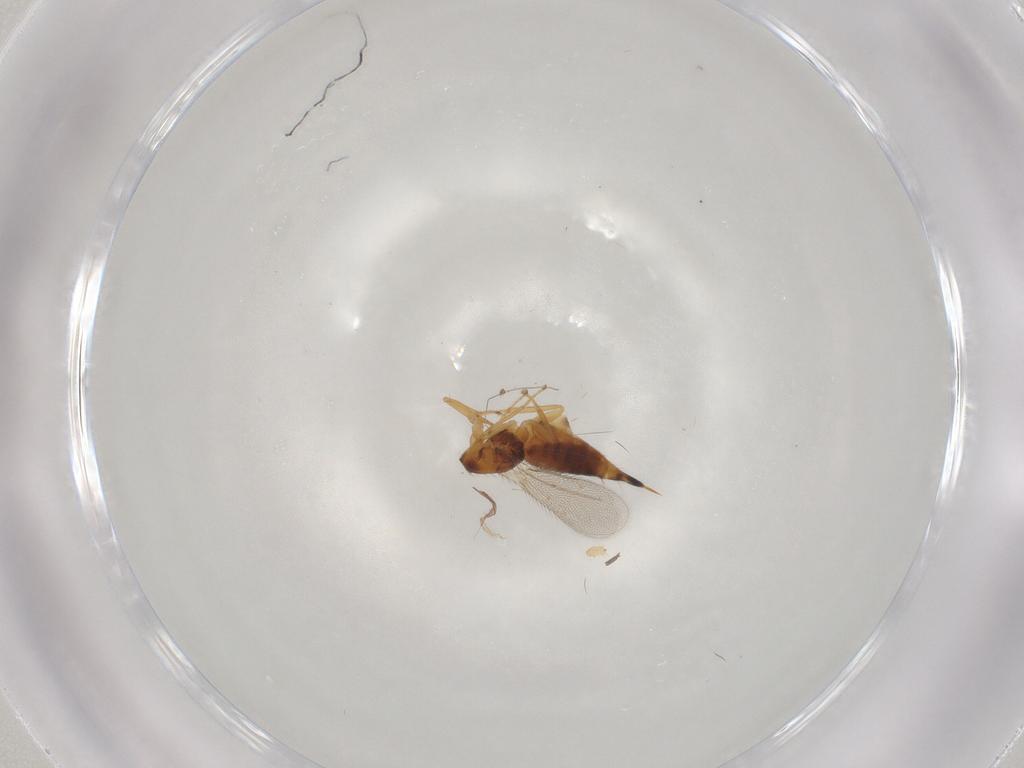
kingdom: Animalia
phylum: Arthropoda
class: Insecta
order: Hymenoptera
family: Eulophidae
